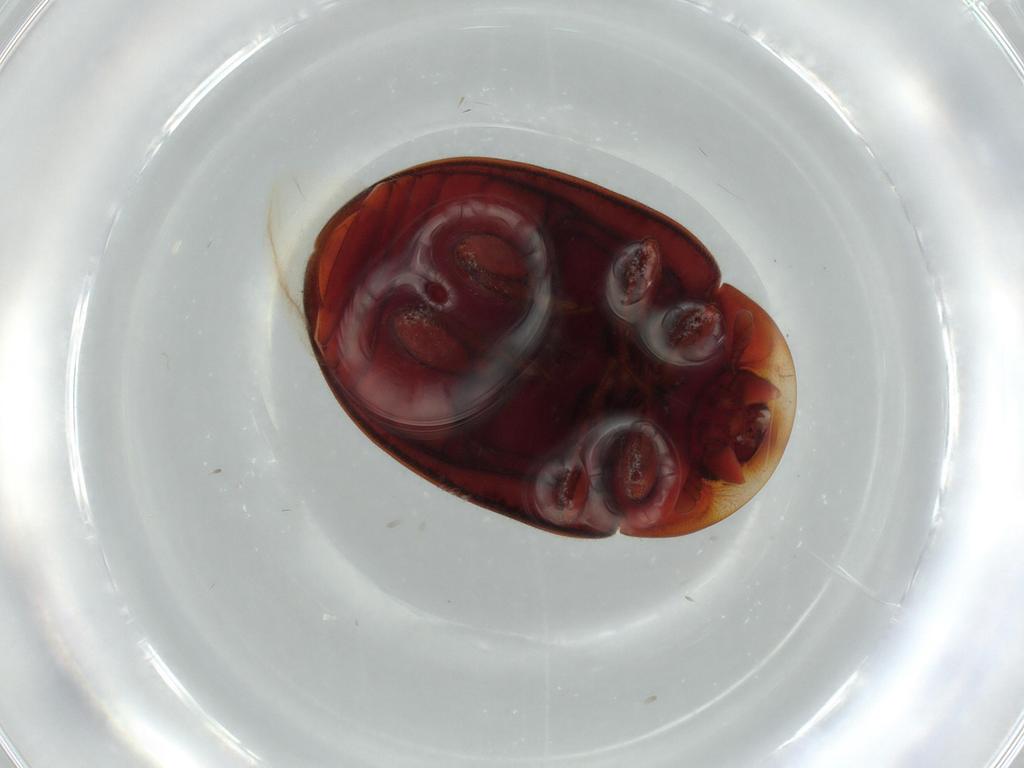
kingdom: Animalia
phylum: Arthropoda
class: Insecta
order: Coleoptera
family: Coccinellidae
